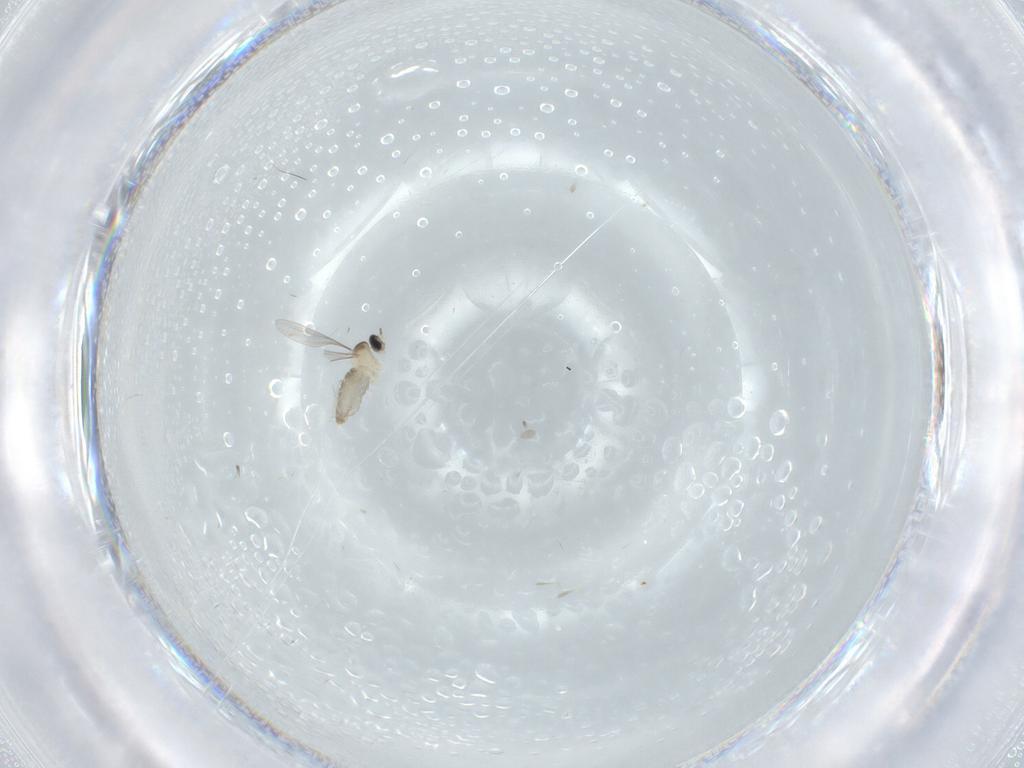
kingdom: Animalia
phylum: Arthropoda
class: Insecta
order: Diptera
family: Cecidomyiidae
